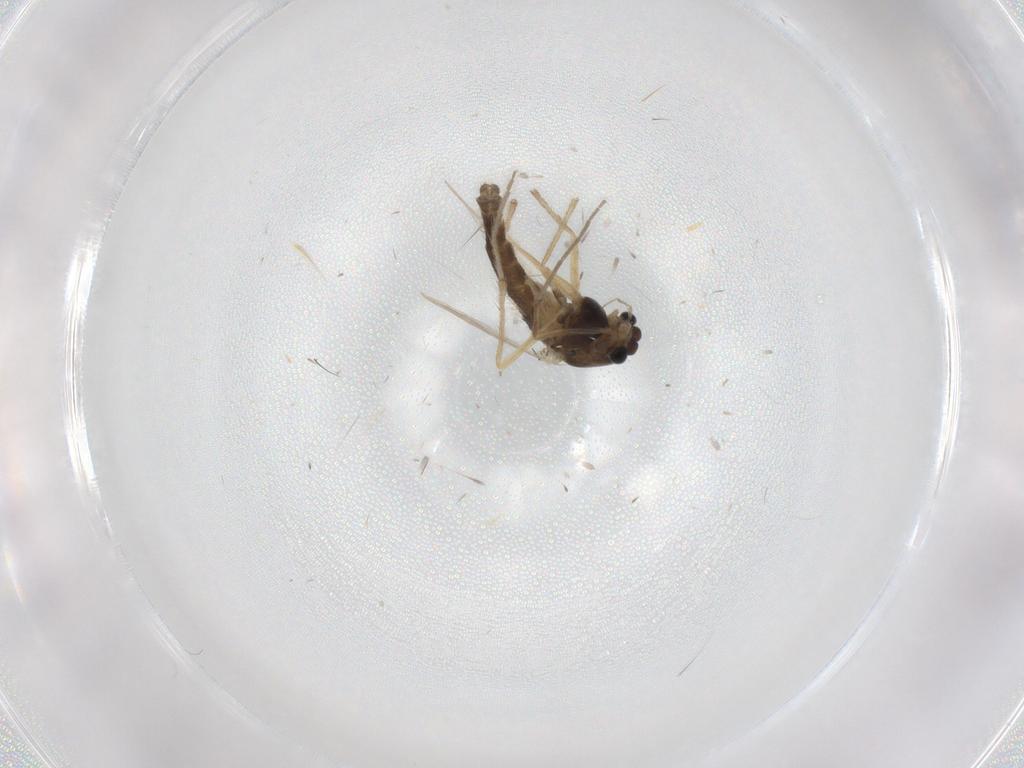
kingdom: Animalia
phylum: Arthropoda
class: Insecta
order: Diptera
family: Chironomidae
